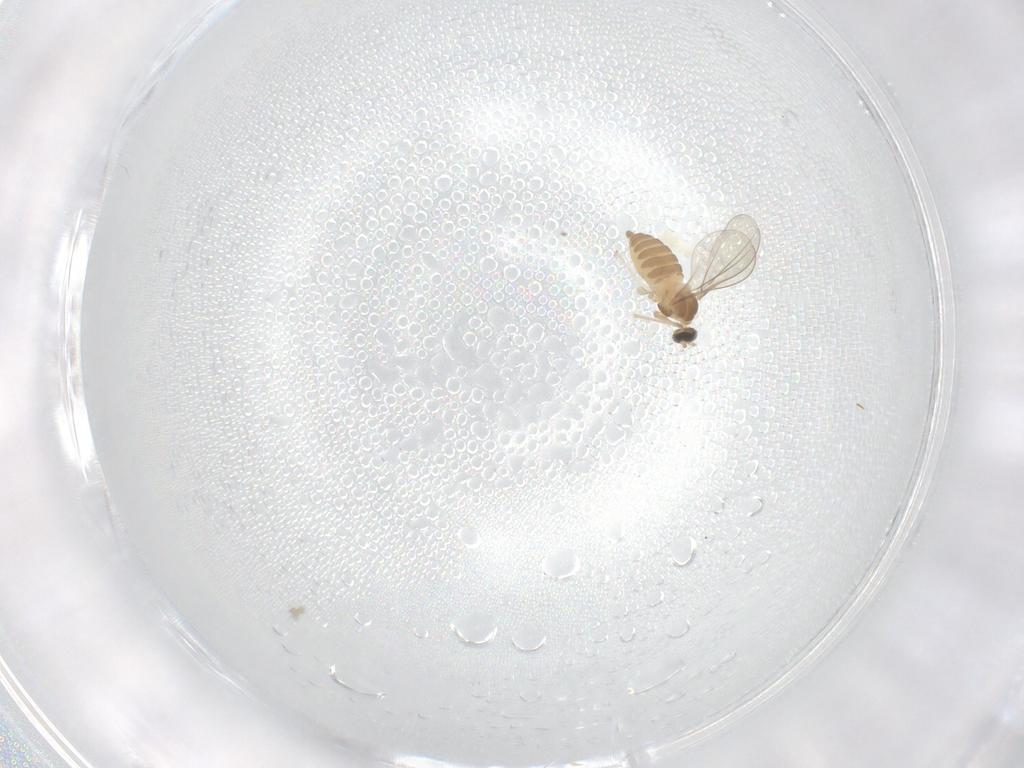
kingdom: Animalia
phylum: Arthropoda
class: Insecta
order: Diptera
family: Cecidomyiidae
